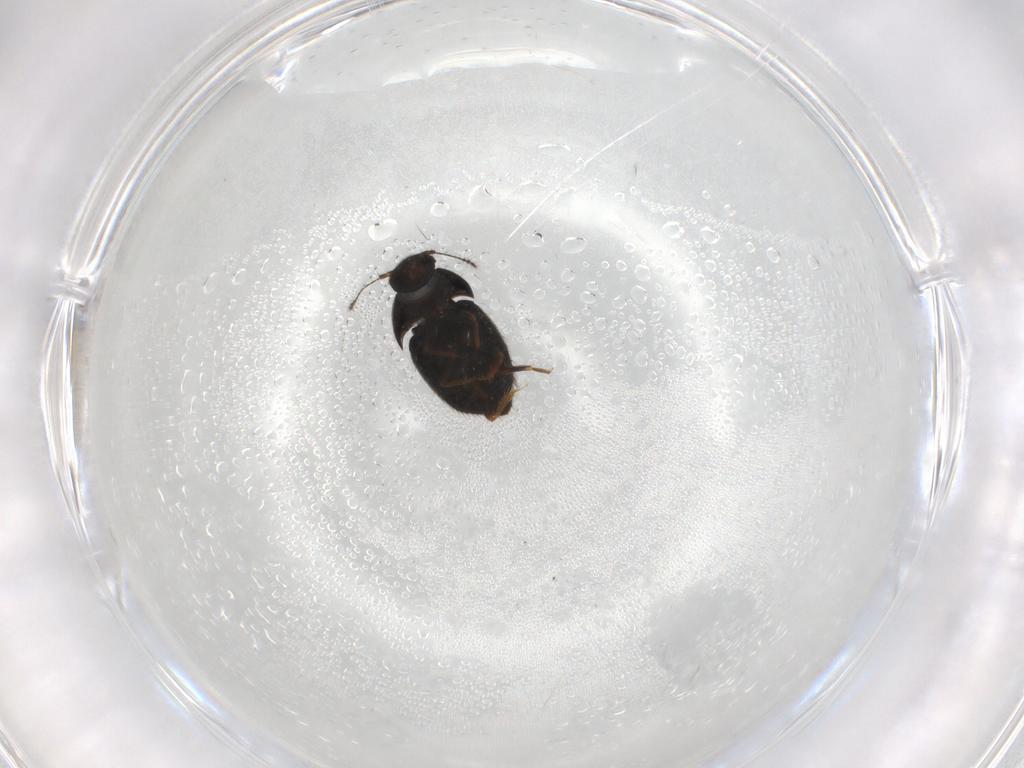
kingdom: Animalia
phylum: Arthropoda
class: Insecta
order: Coleoptera
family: Ptiliidae
